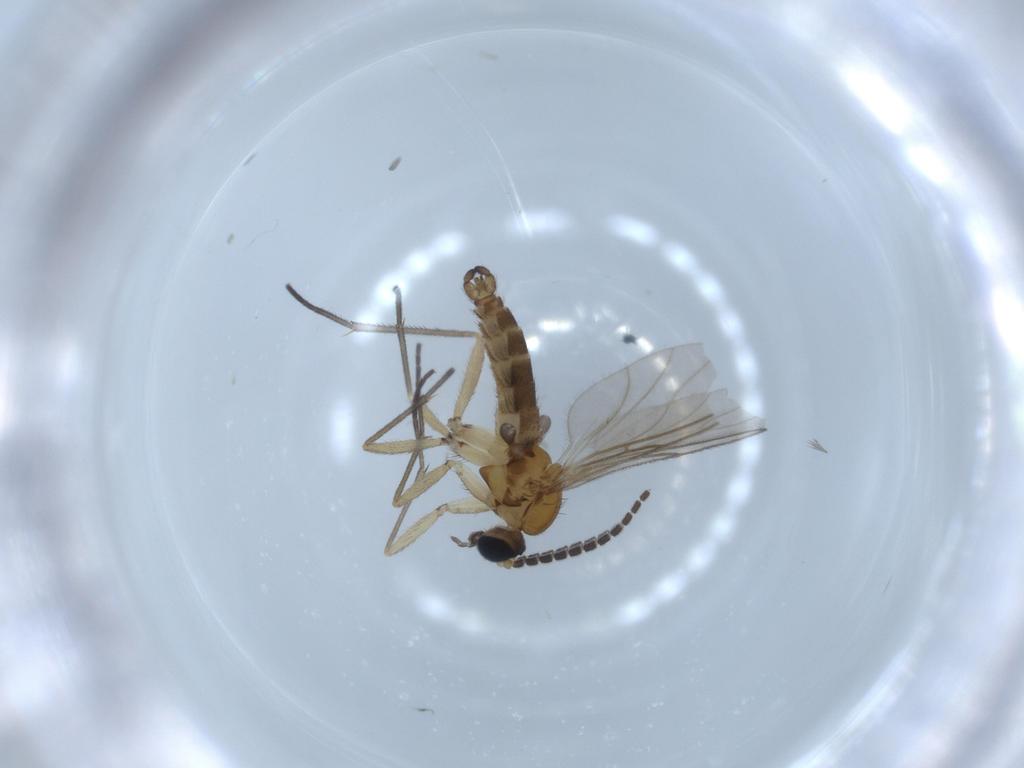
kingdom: Animalia
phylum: Arthropoda
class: Insecta
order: Diptera
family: Sciaridae
